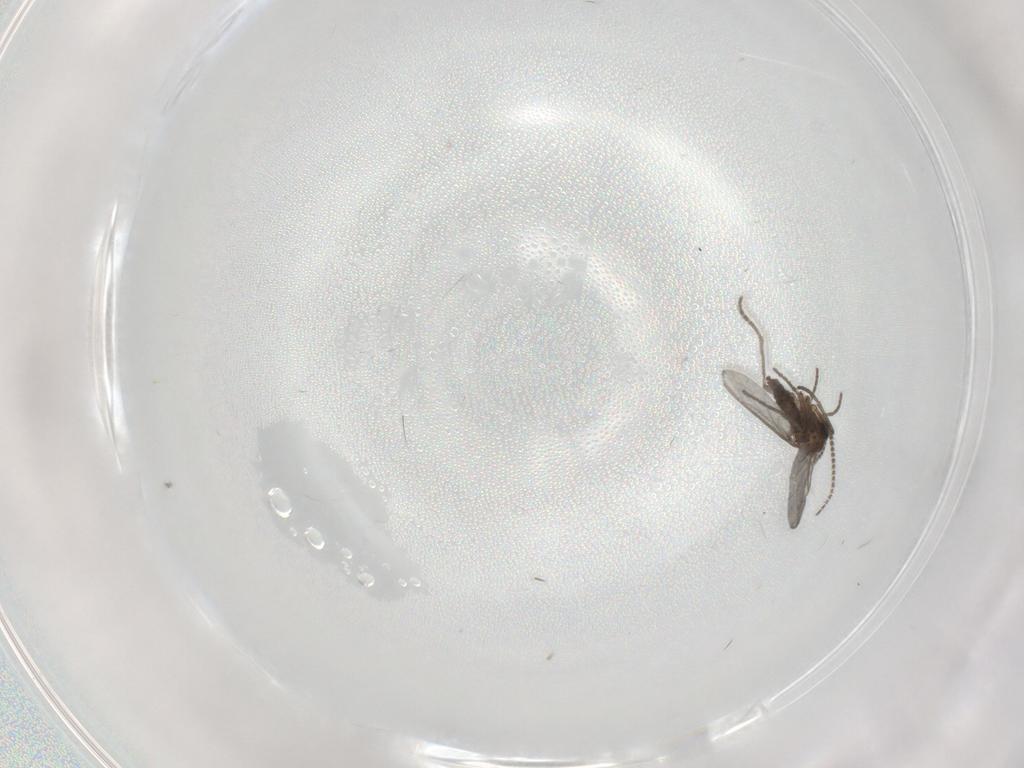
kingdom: Animalia
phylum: Arthropoda
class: Insecta
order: Diptera
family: Sciaridae
